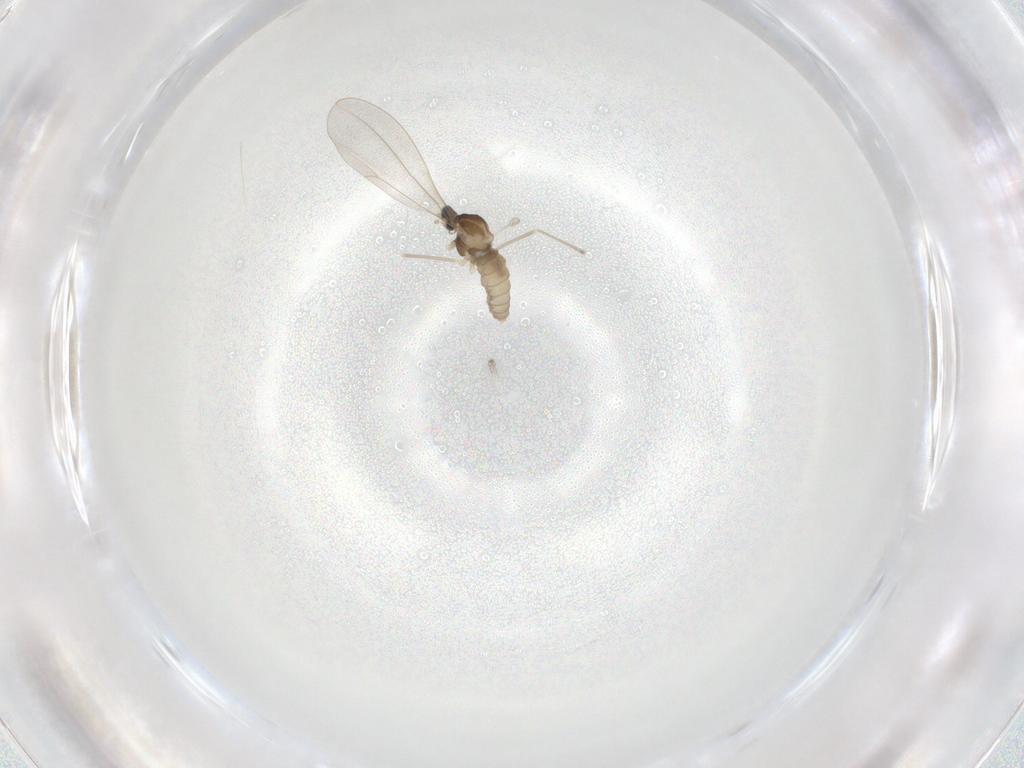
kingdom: Animalia
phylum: Arthropoda
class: Insecta
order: Diptera
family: Cecidomyiidae
